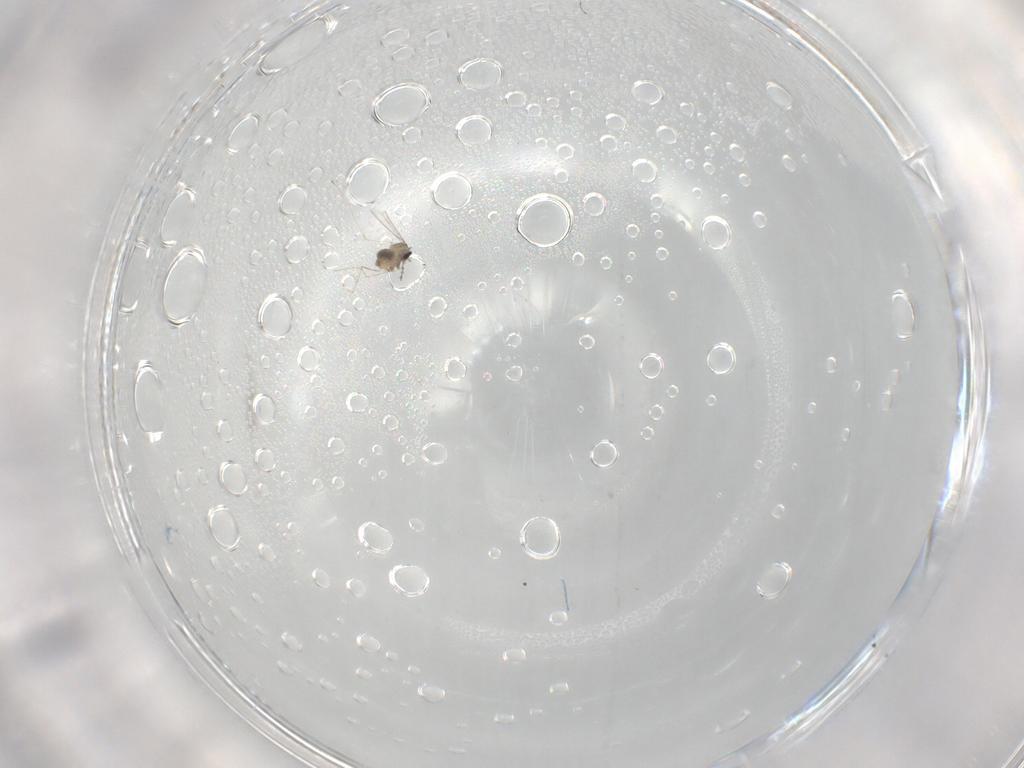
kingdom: Animalia
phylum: Arthropoda
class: Insecta
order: Diptera
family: Cecidomyiidae
